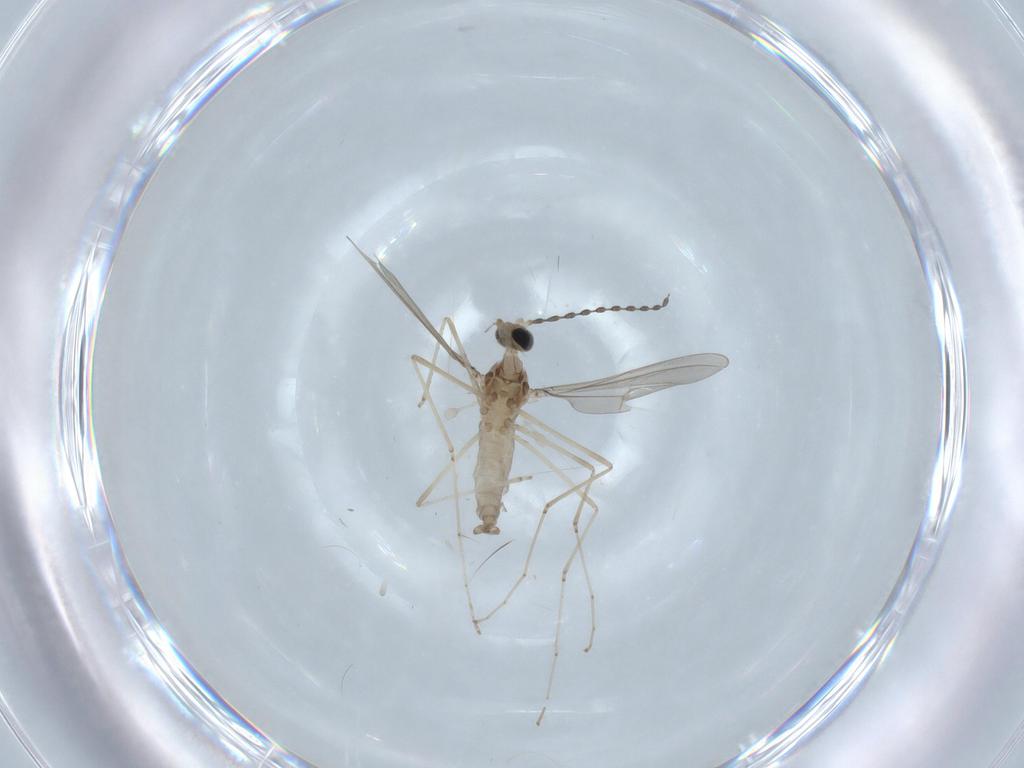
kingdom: Animalia
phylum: Arthropoda
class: Insecta
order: Diptera
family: Cecidomyiidae
